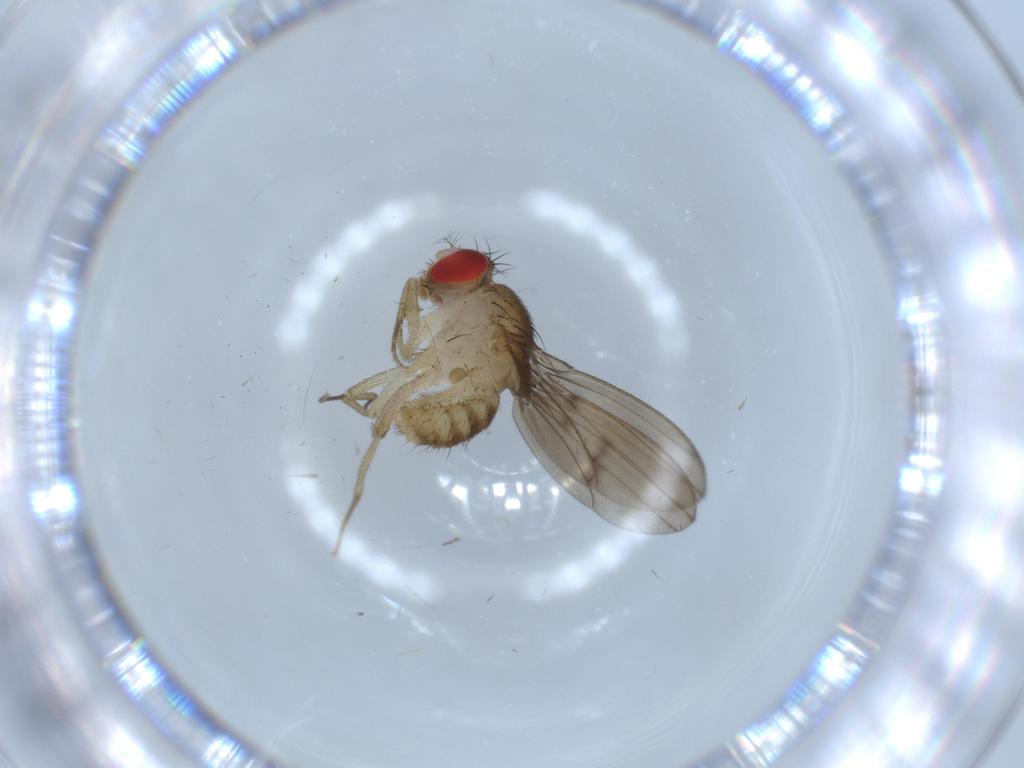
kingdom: Animalia
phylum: Arthropoda
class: Insecta
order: Diptera
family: Drosophilidae
